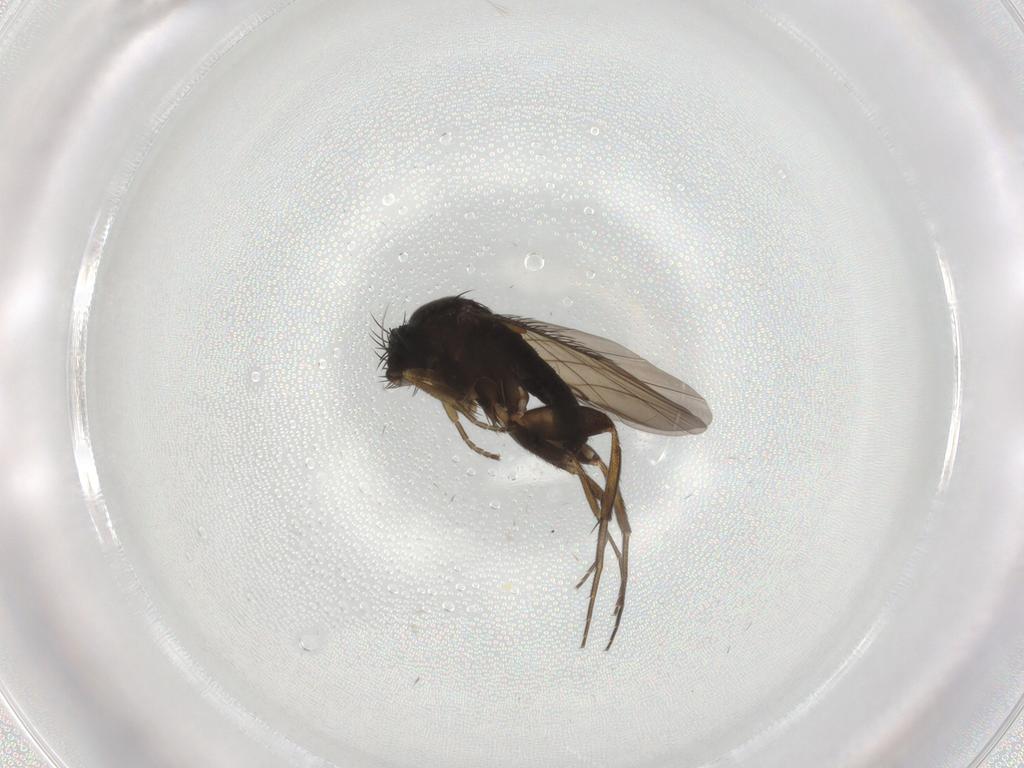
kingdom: Animalia
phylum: Arthropoda
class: Insecta
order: Diptera
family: Phoridae
